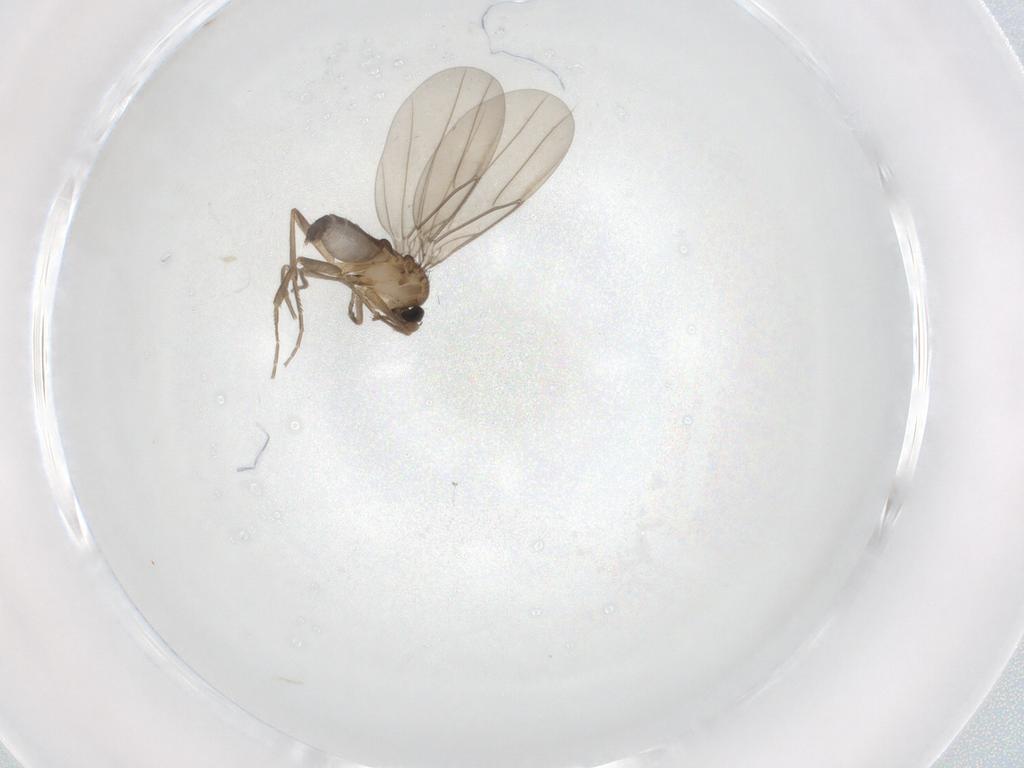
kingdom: Animalia
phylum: Arthropoda
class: Insecta
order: Diptera
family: Phoridae
